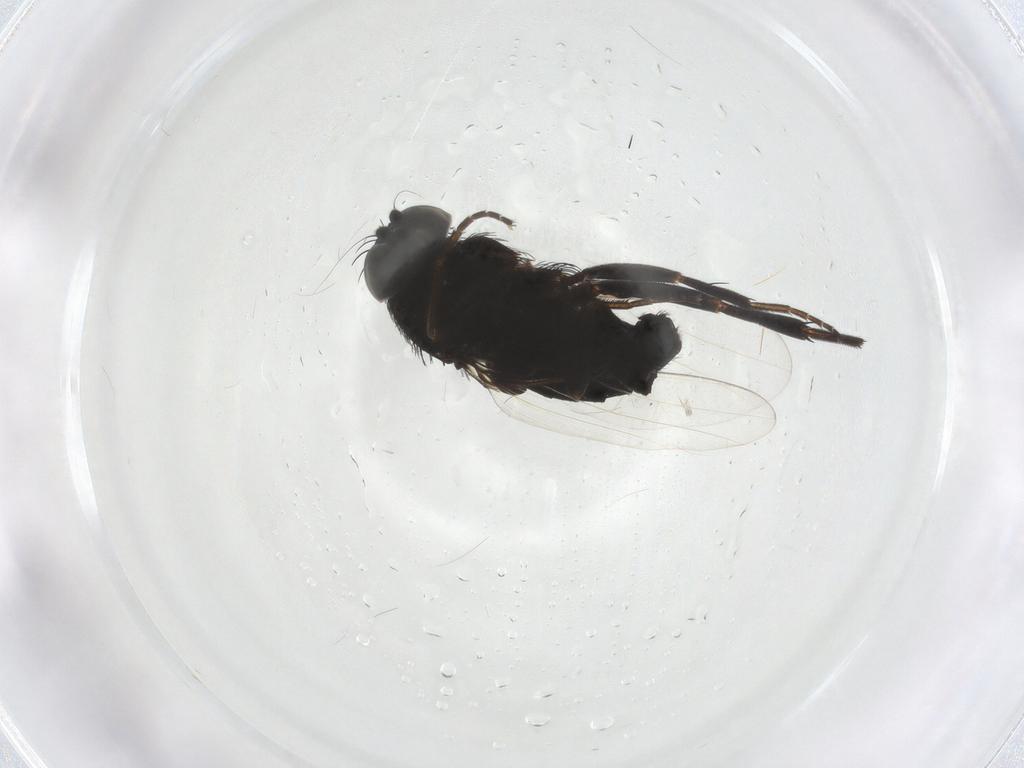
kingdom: Animalia
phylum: Arthropoda
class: Insecta
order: Diptera
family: Phoridae
